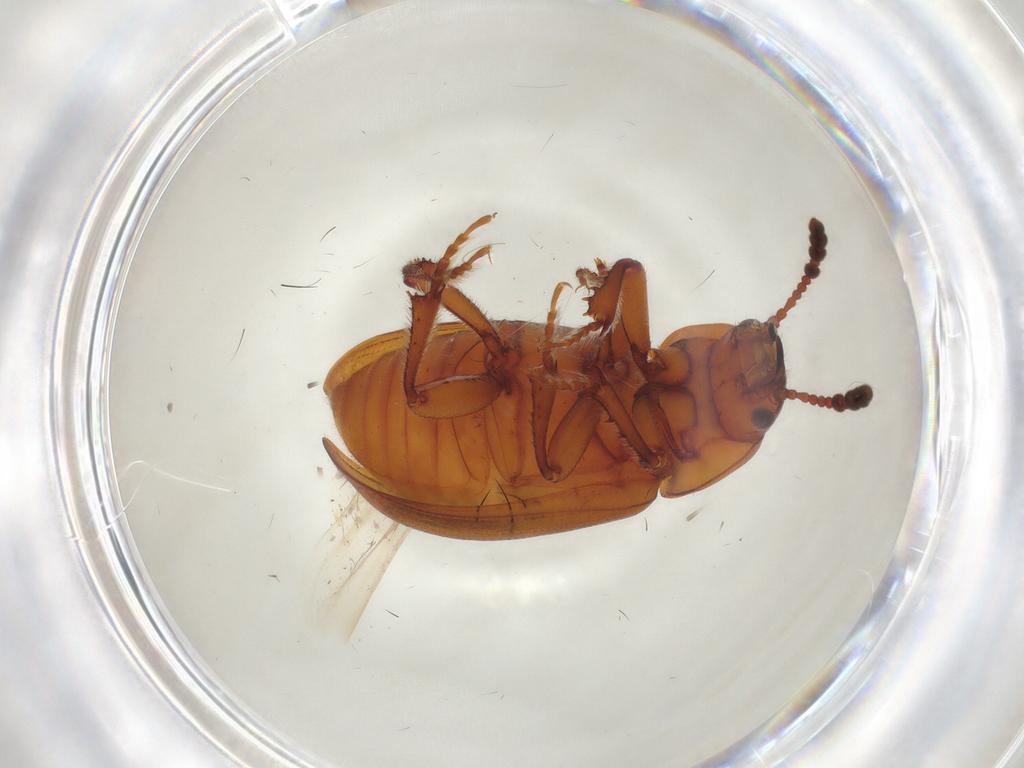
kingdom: Animalia
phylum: Arthropoda
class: Insecta
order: Coleoptera
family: Leiodidae
